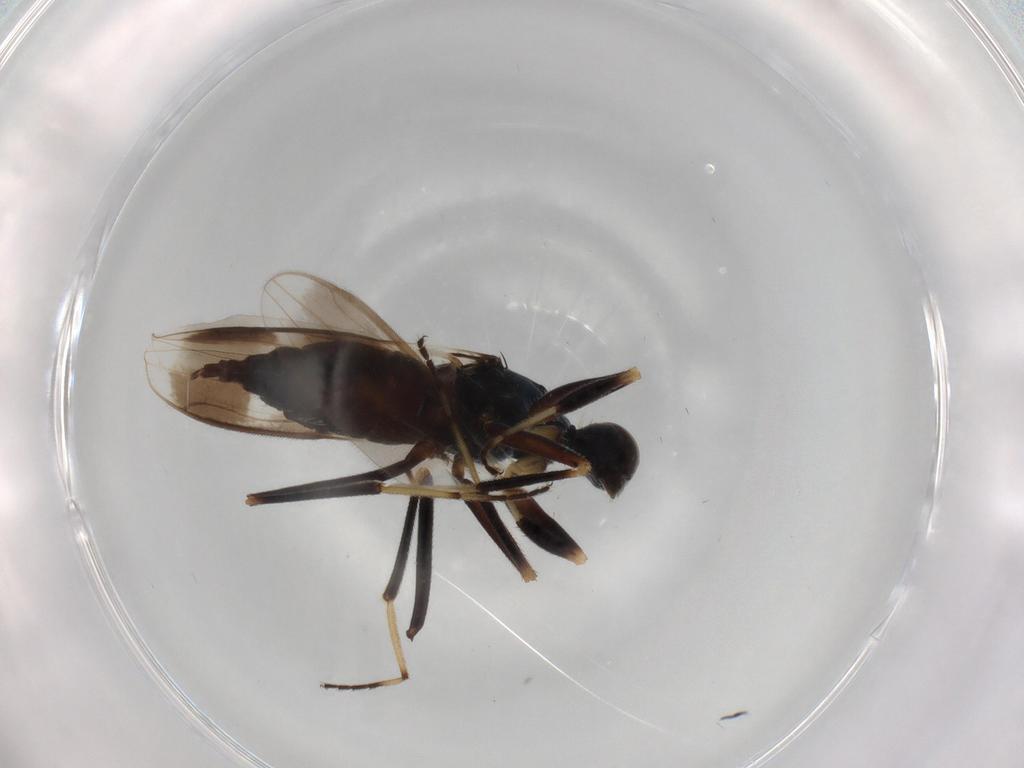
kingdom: Animalia
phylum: Arthropoda
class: Insecta
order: Diptera
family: Hybotidae
